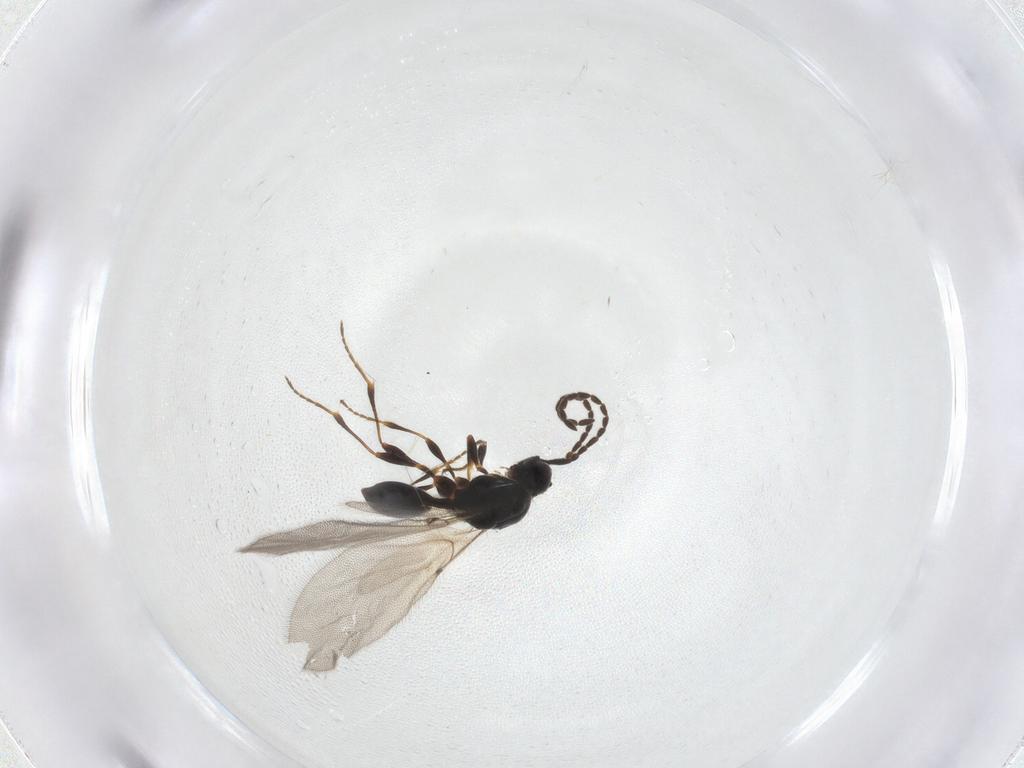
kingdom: Animalia
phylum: Arthropoda
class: Insecta
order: Hymenoptera
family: Diapriidae
